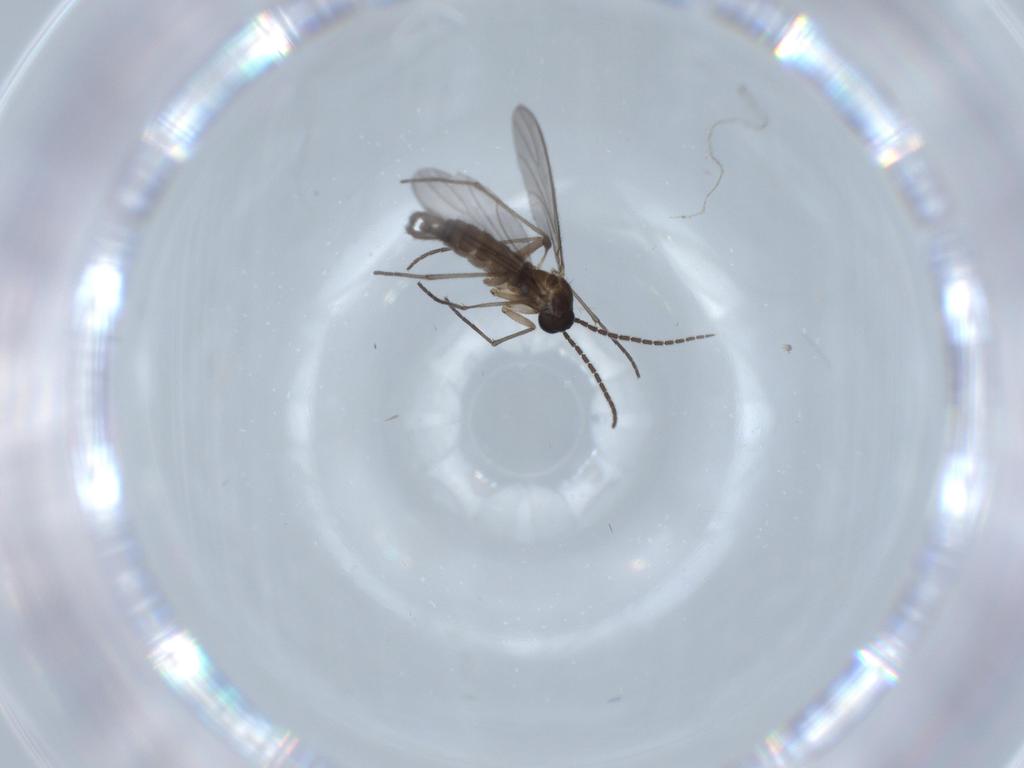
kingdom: Animalia
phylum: Arthropoda
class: Insecta
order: Diptera
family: Sciaridae
